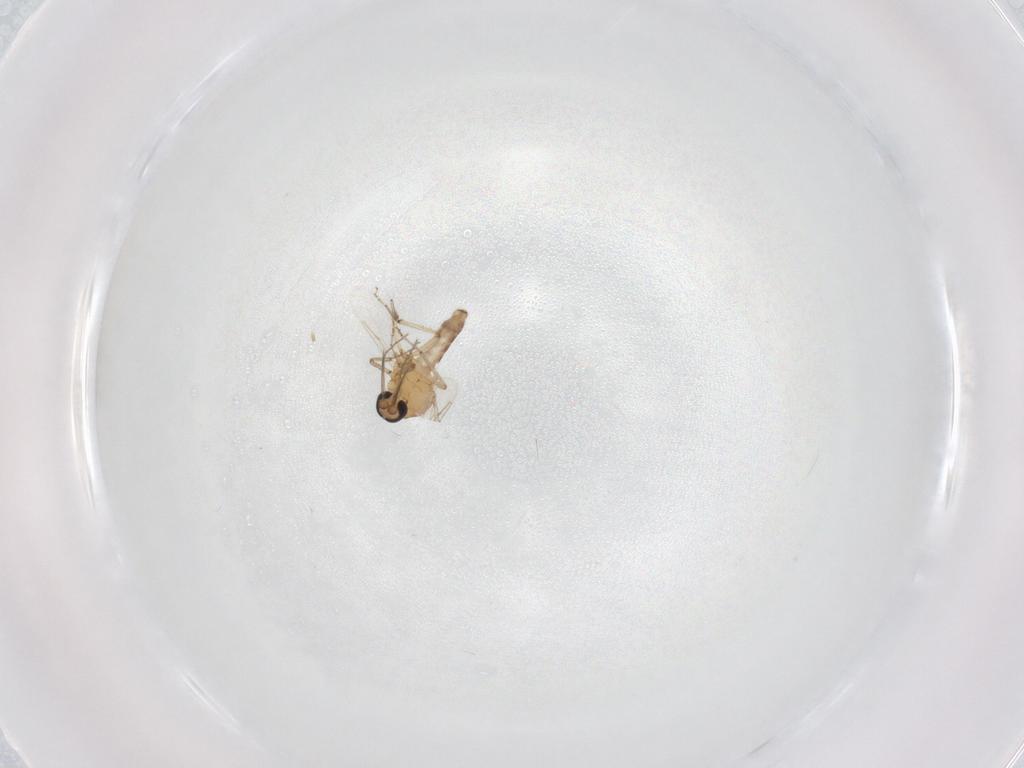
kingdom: Animalia
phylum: Arthropoda
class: Insecta
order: Diptera
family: Ceratopogonidae
